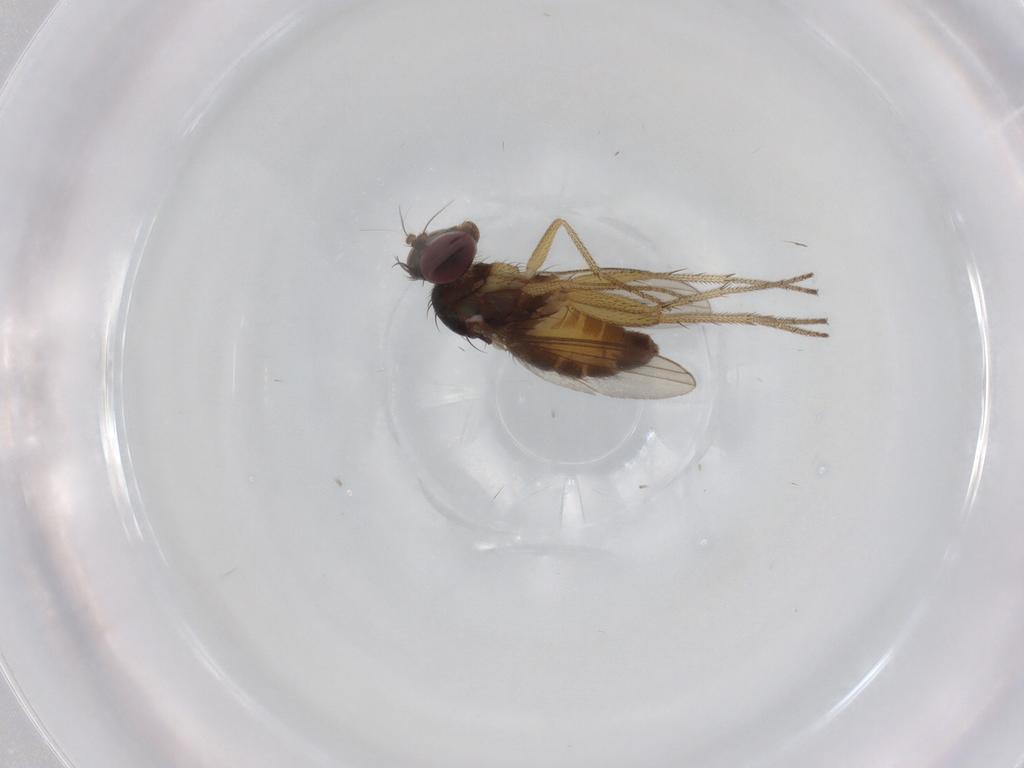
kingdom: Animalia
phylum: Arthropoda
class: Insecta
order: Diptera
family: Dolichopodidae
